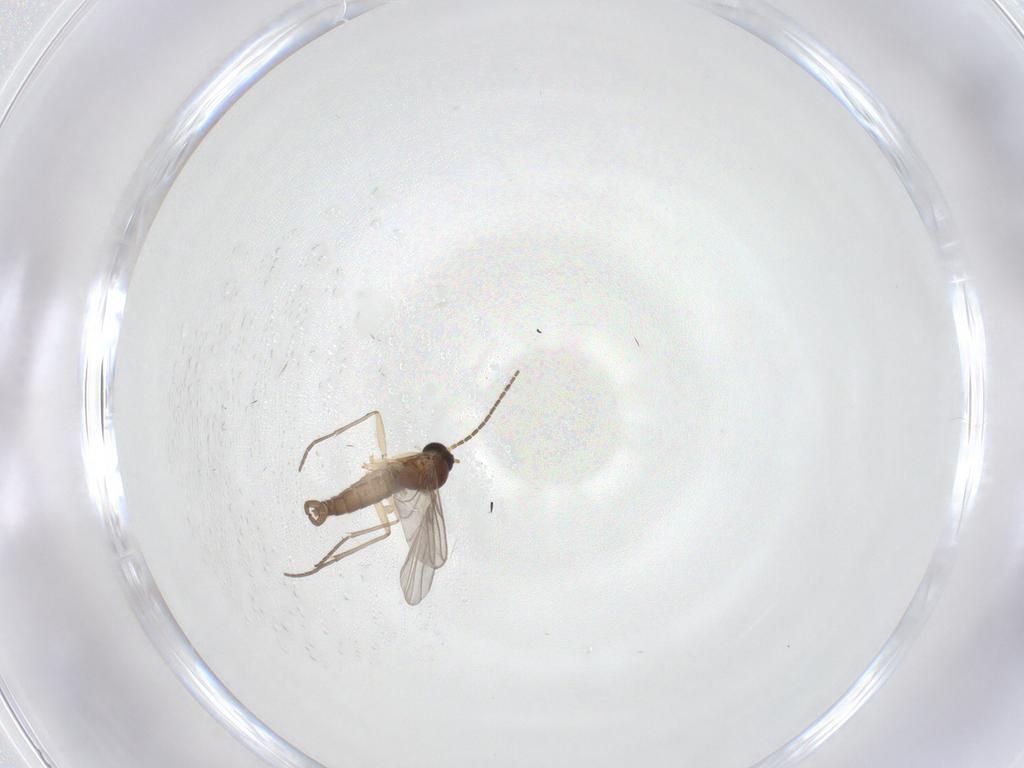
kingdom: Animalia
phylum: Arthropoda
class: Insecta
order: Diptera
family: Sciaridae
